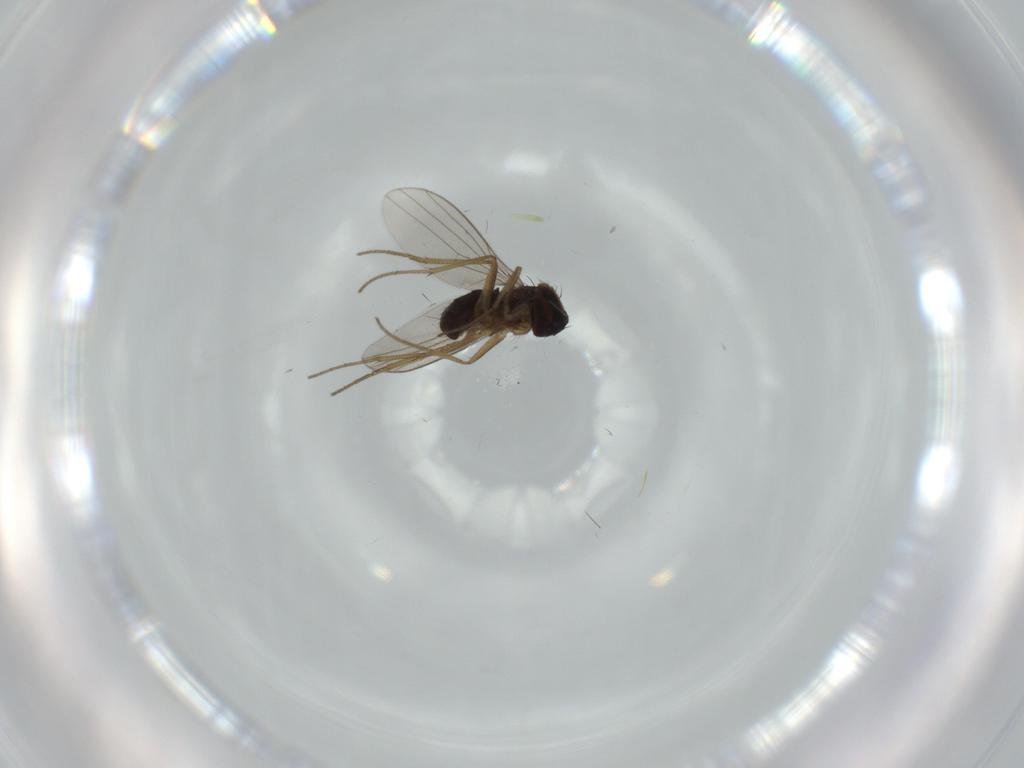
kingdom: Animalia
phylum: Arthropoda
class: Insecta
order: Diptera
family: Dolichopodidae
